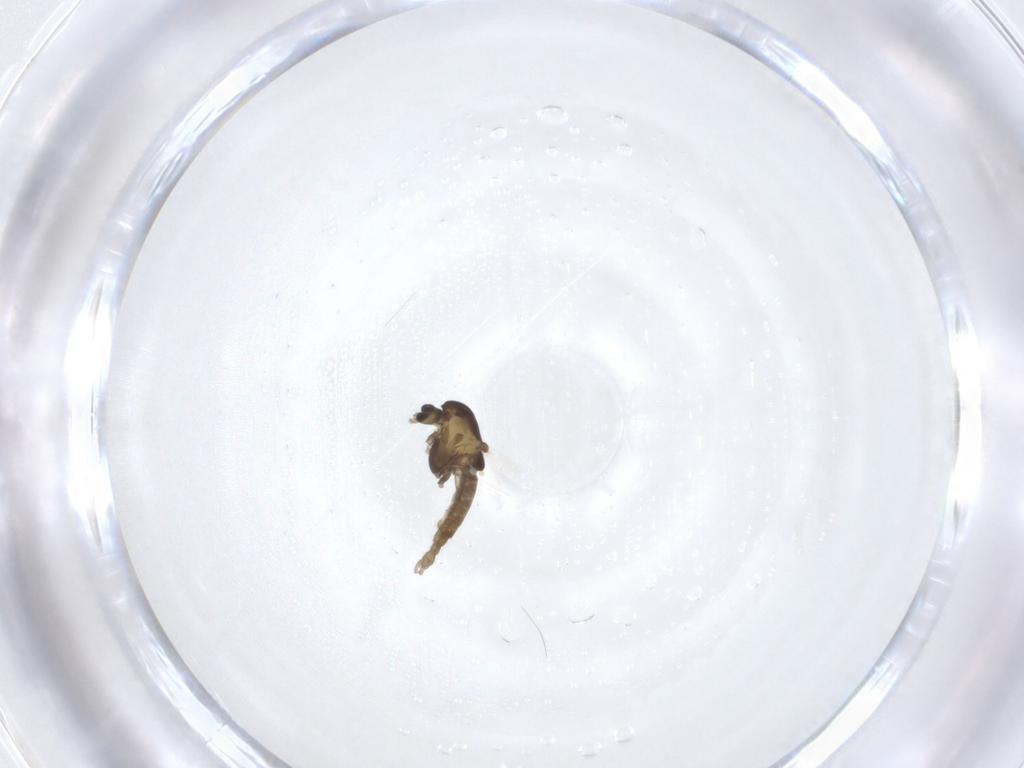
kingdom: Animalia
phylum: Arthropoda
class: Insecta
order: Diptera
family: Chironomidae
